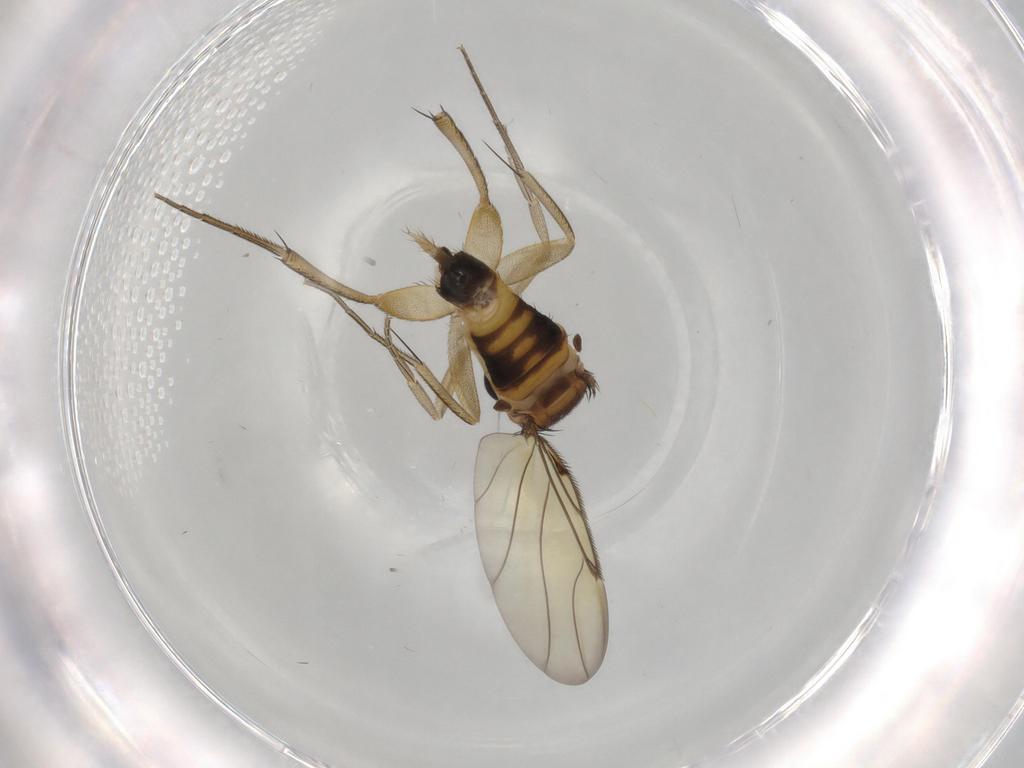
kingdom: Animalia
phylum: Arthropoda
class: Insecta
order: Diptera
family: Phoridae
